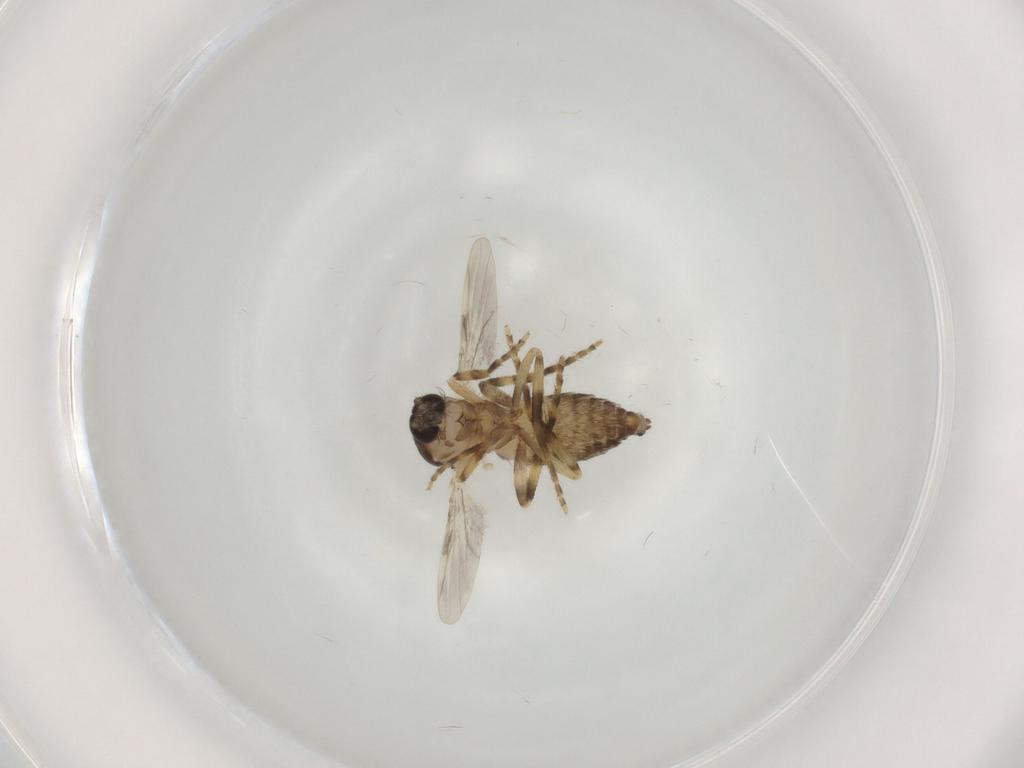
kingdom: Animalia
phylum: Arthropoda
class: Insecta
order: Diptera
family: Ceratopogonidae
